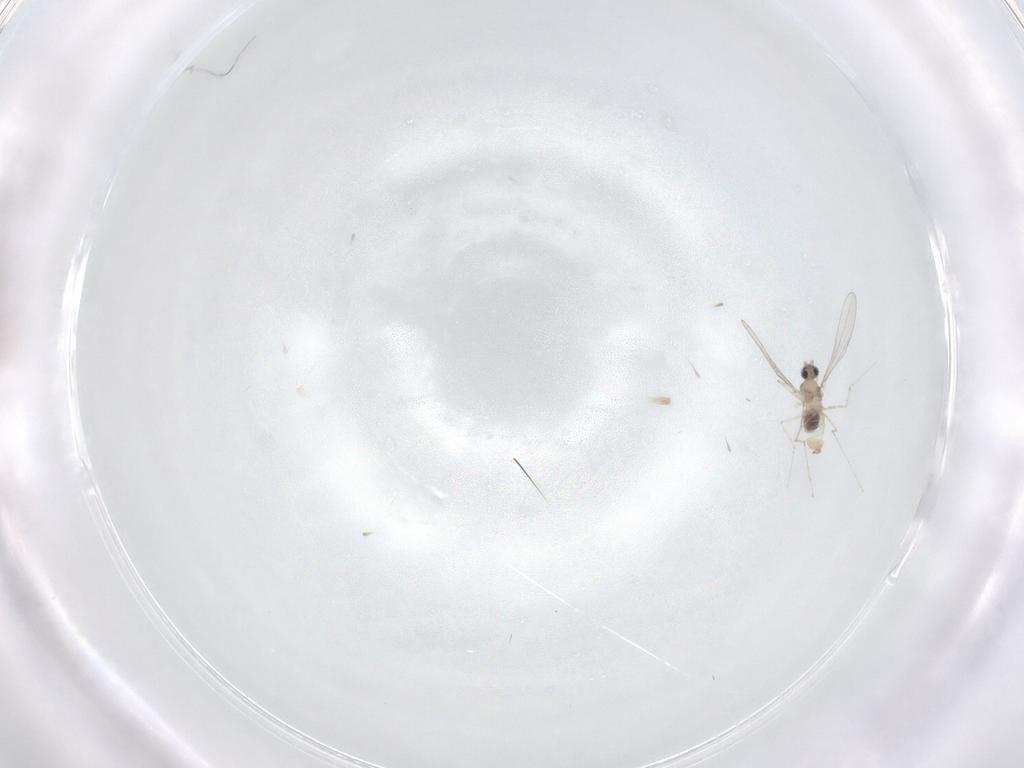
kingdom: Animalia
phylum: Arthropoda
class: Insecta
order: Diptera
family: Cecidomyiidae
